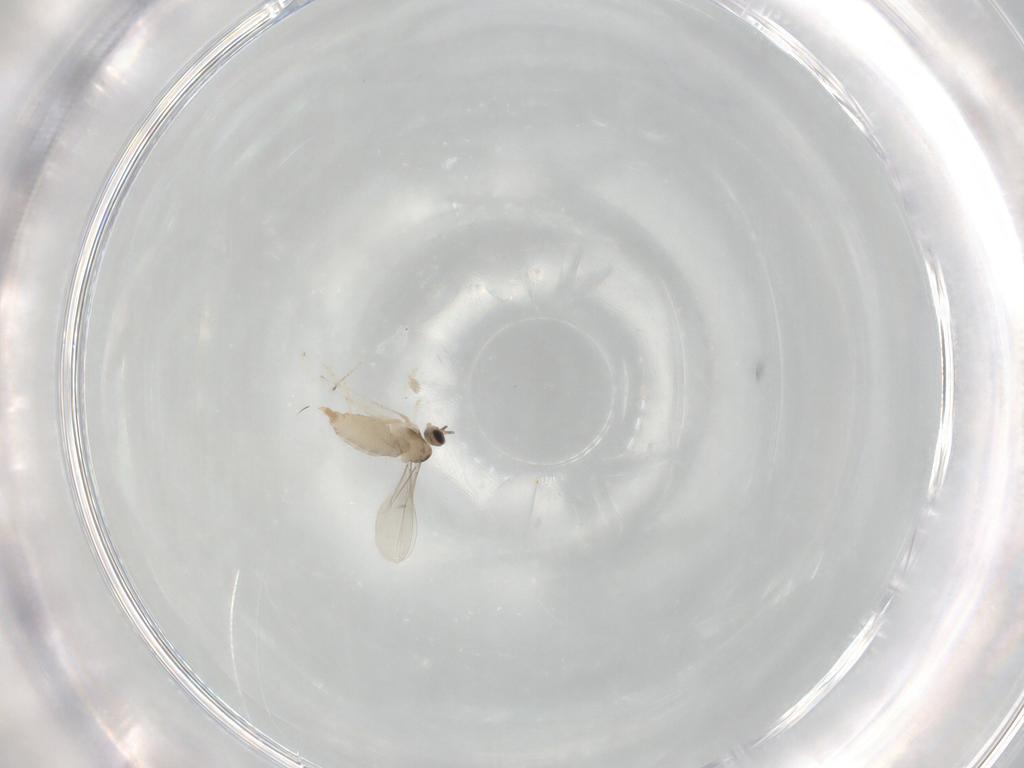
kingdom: Animalia
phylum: Arthropoda
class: Insecta
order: Diptera
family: Cecidomyiidae
